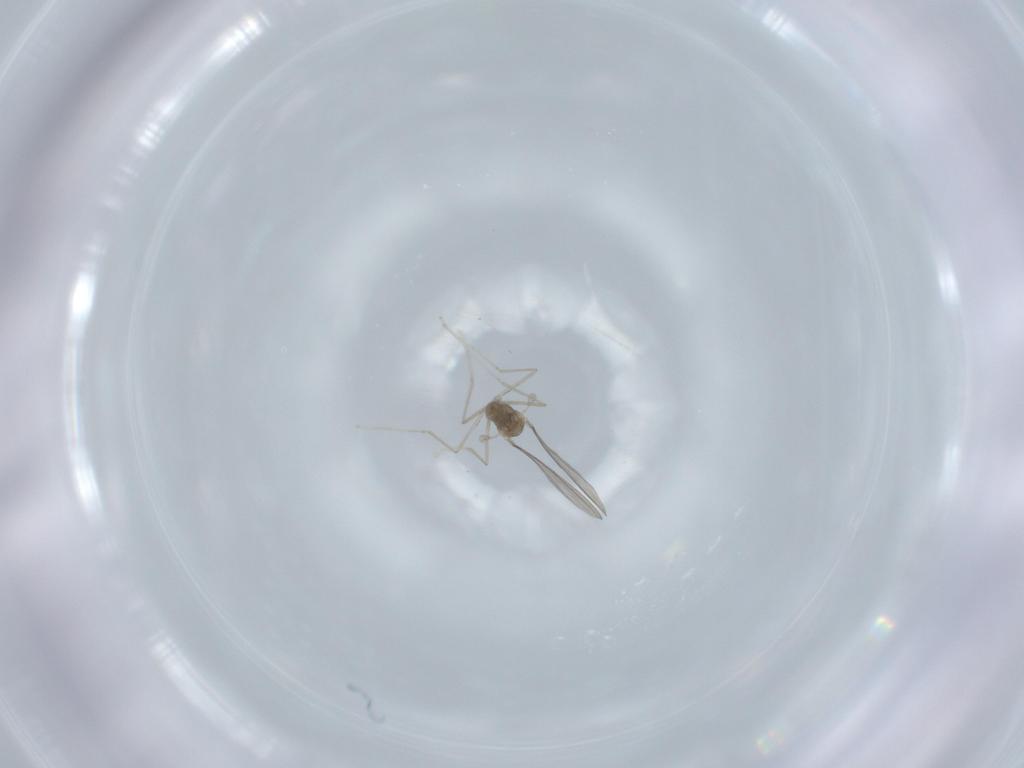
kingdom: Animalia
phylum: Arthropoda
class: Insecta
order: Diptera
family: Cecidomyiidae
